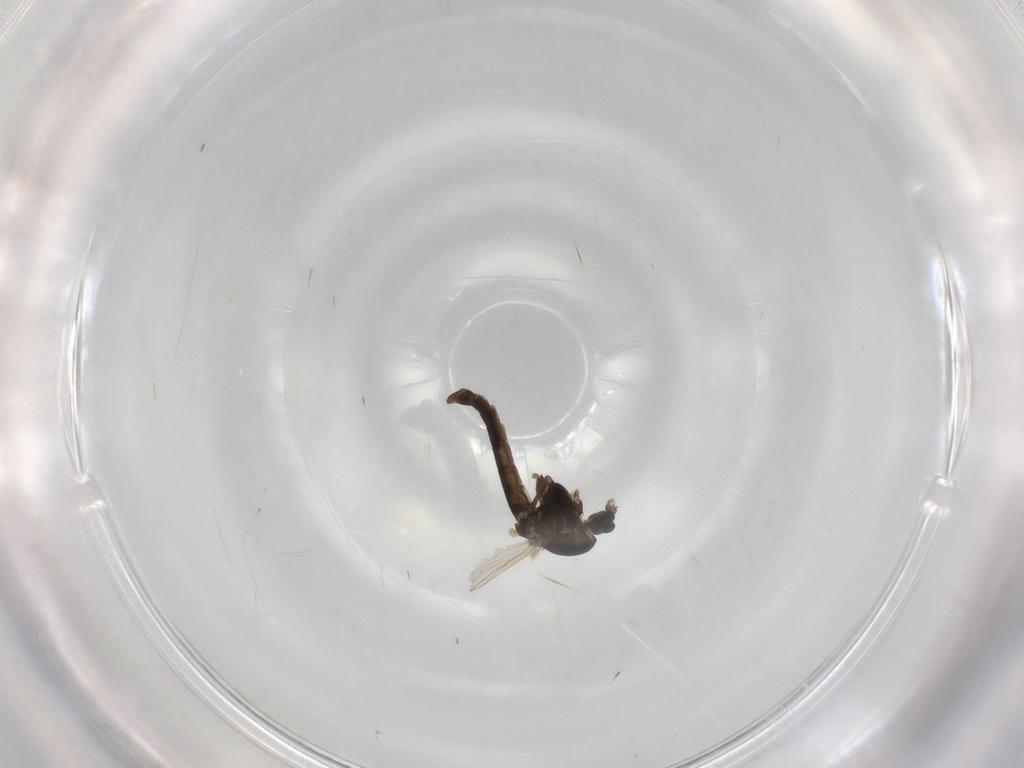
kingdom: Animalia
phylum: Arthropoda
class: Insecta
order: Diptera
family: Chironomidae
